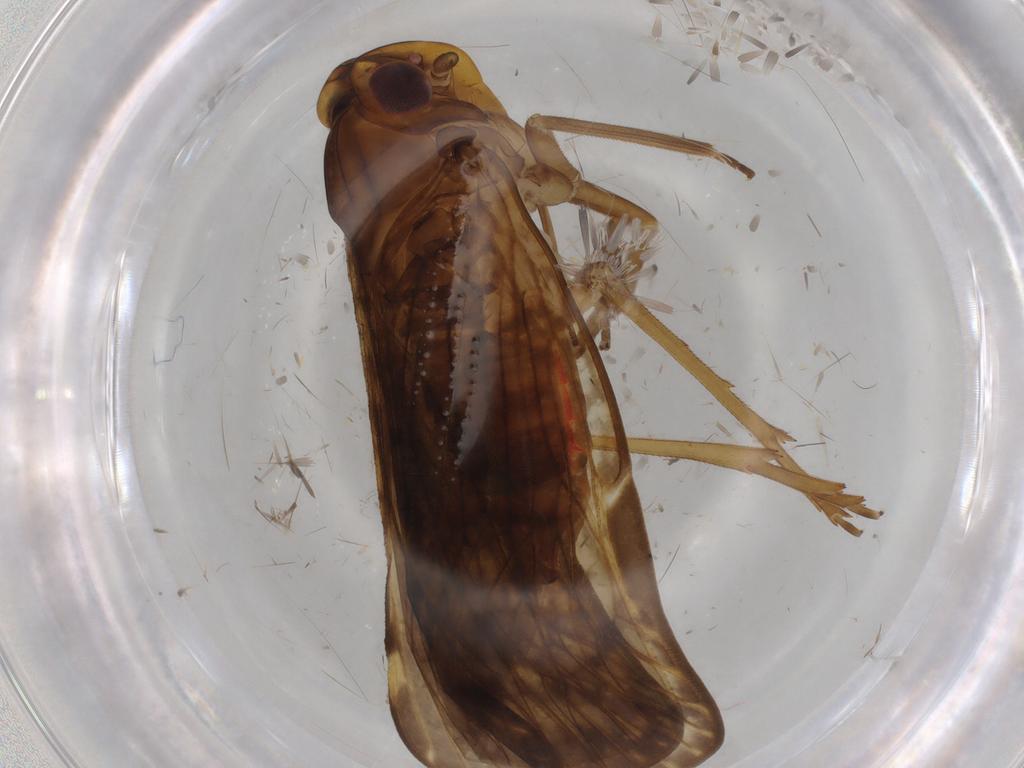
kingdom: Animalia
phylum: Arthropoda
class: Insecta
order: Hemiptera
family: Cixiidae
